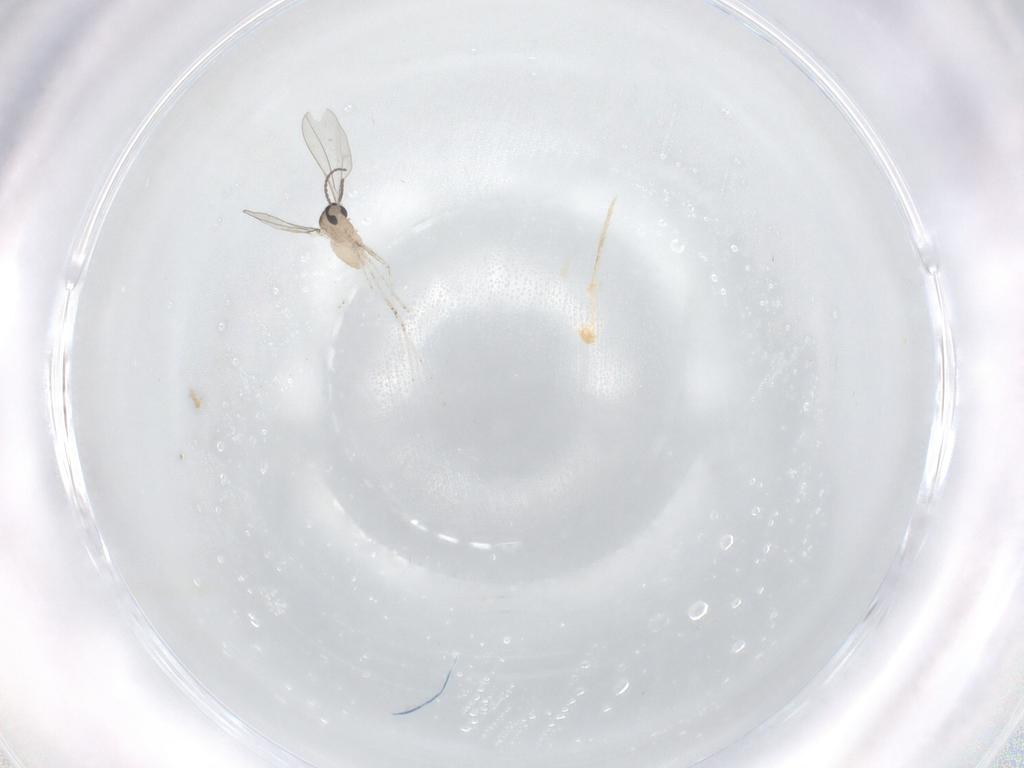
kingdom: Animalia
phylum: Arthropoda
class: Insecta
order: Diptera
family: Cecidomyiidae
